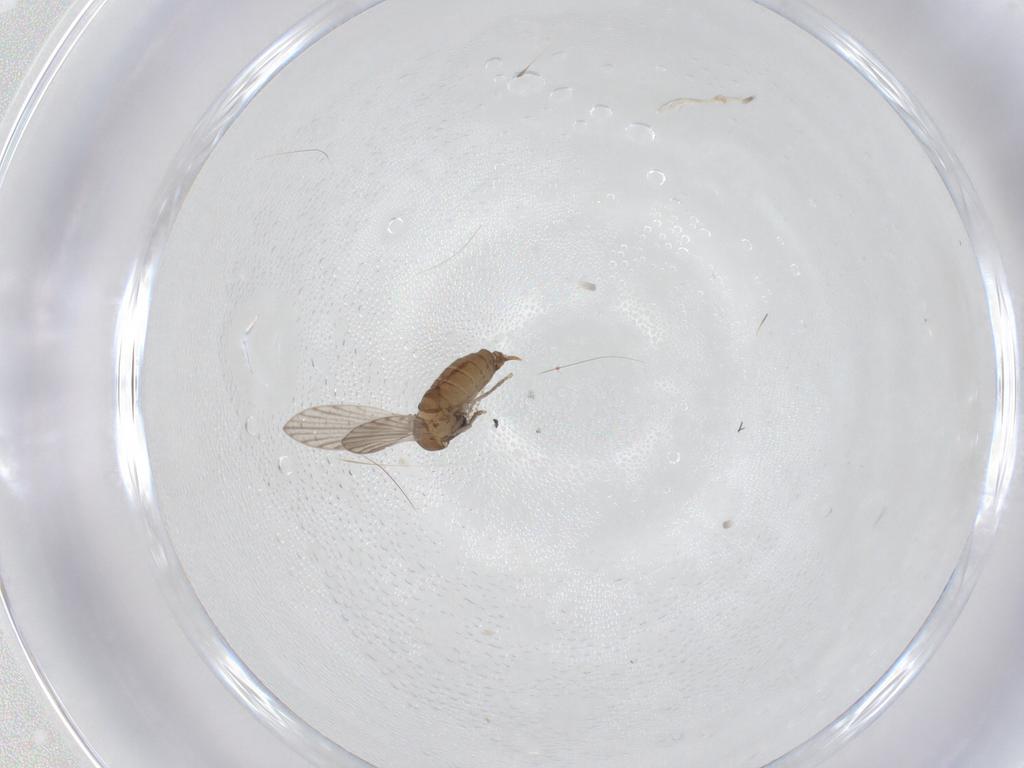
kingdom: Animalia
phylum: Arthropoda
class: Insecta
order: Diptera
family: Psychodidae
